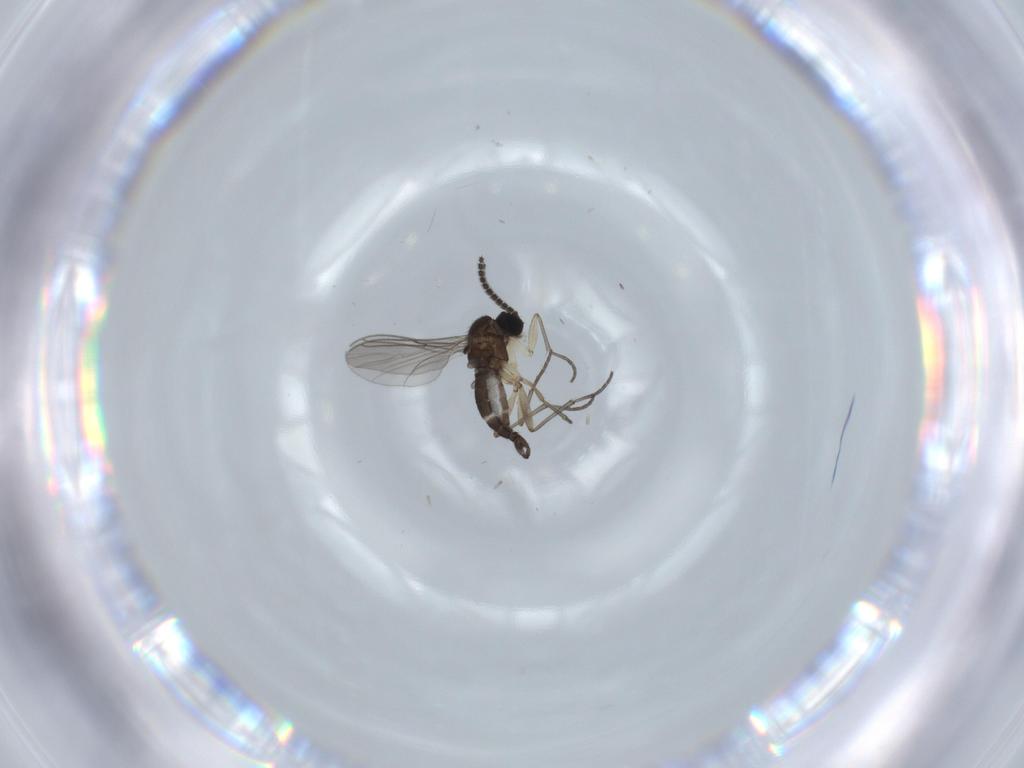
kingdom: Animalia
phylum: Arthropoda
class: Insecta
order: Diptera
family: Sciaridae
